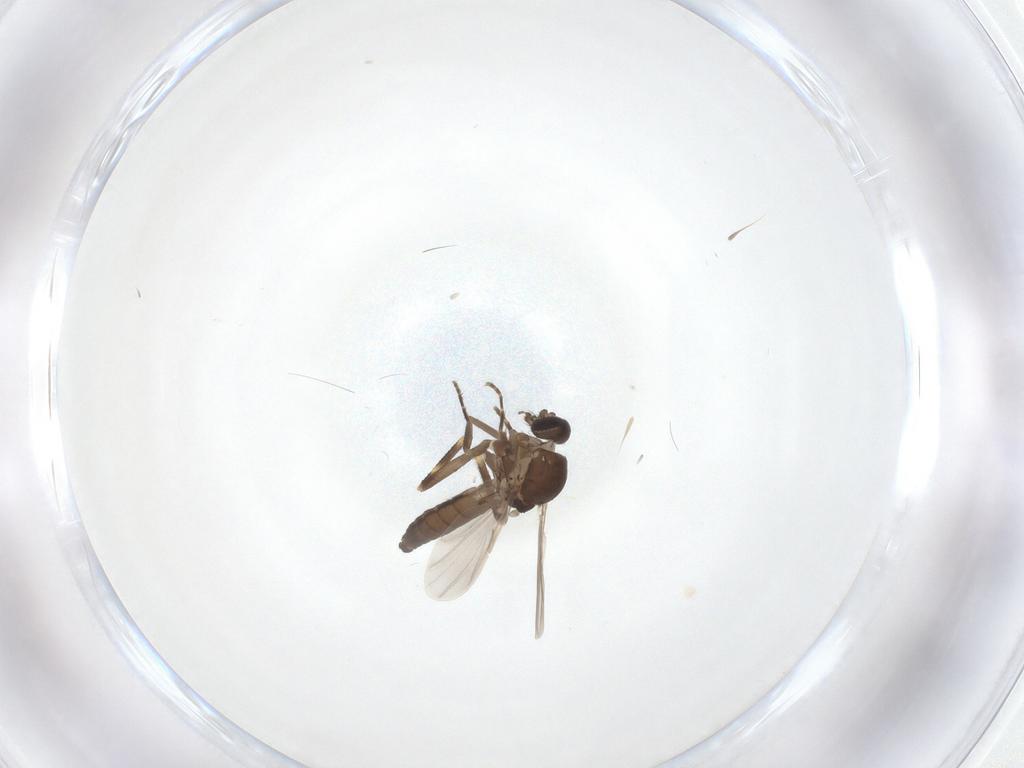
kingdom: Animalia
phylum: Arthropoda
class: Insecta
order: Diptera
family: Ceratopogonidae
